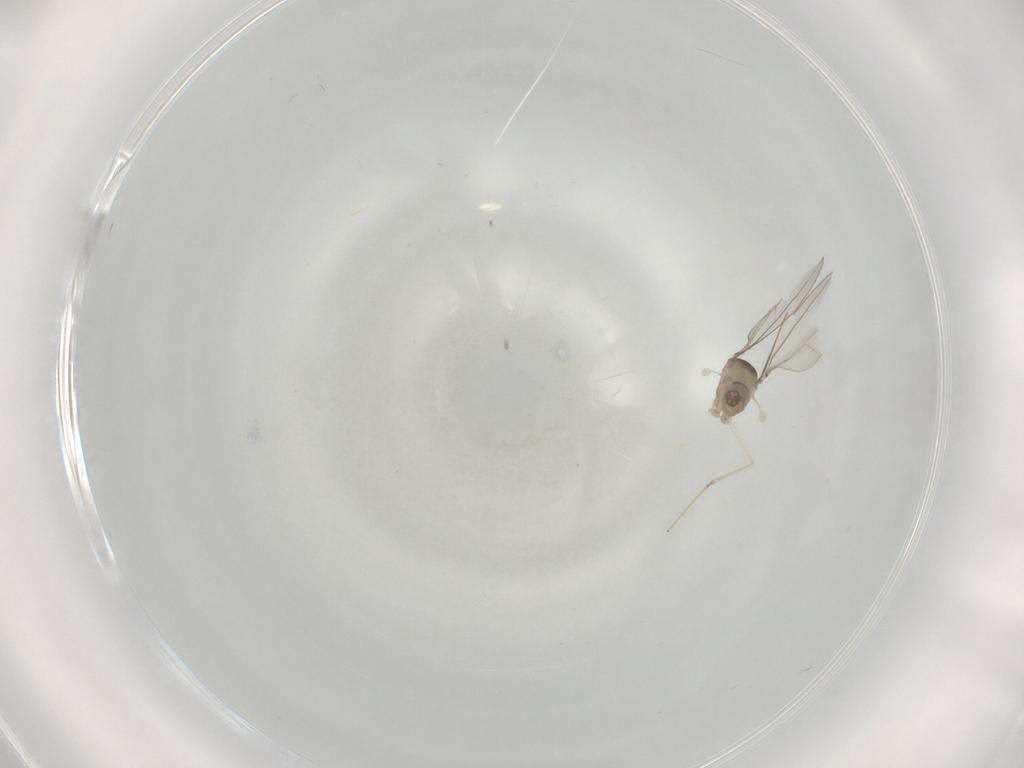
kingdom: Animalia
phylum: Arthropoda
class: Insecta
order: Diptera
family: Cecidomyiidae
